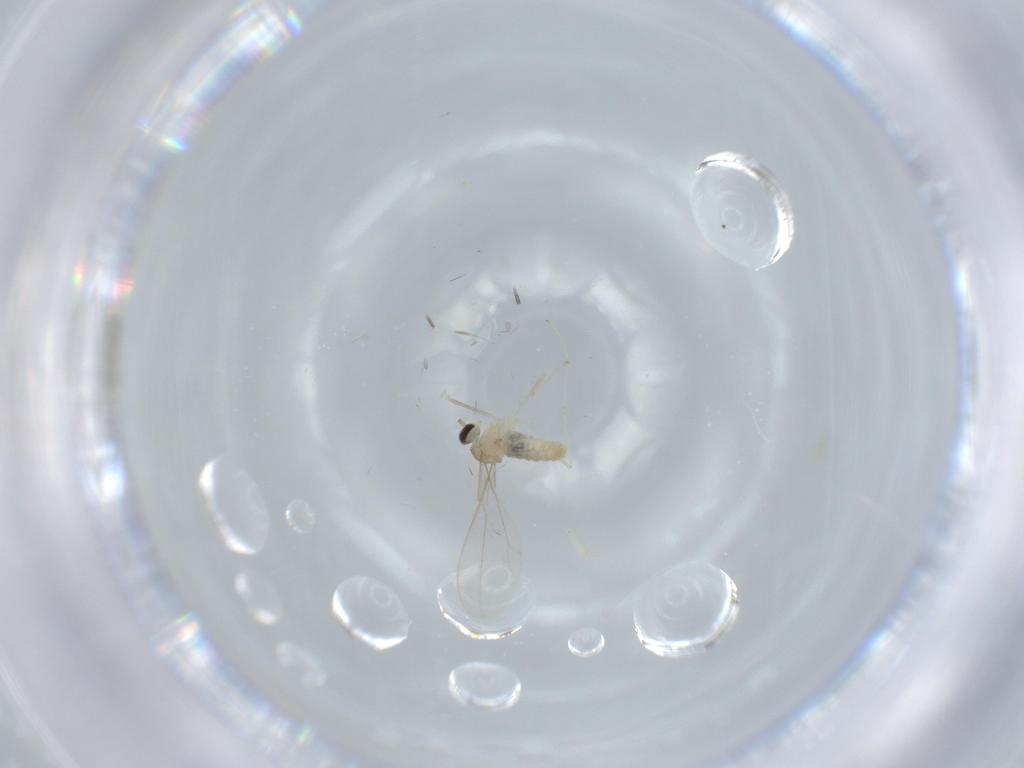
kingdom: Animalia
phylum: Arthropoda
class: Insecta
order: Diptera
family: Cecidomyiidae
